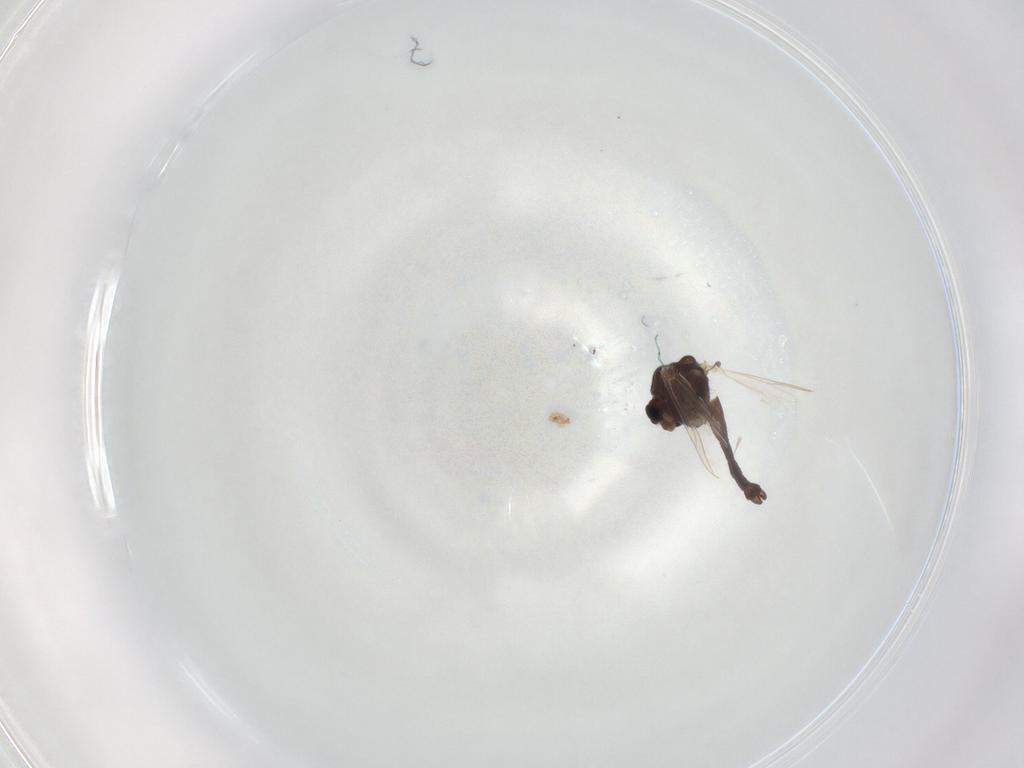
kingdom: Animalia
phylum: Arthropoda
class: Insecta
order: Diptera
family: Chironomidae
